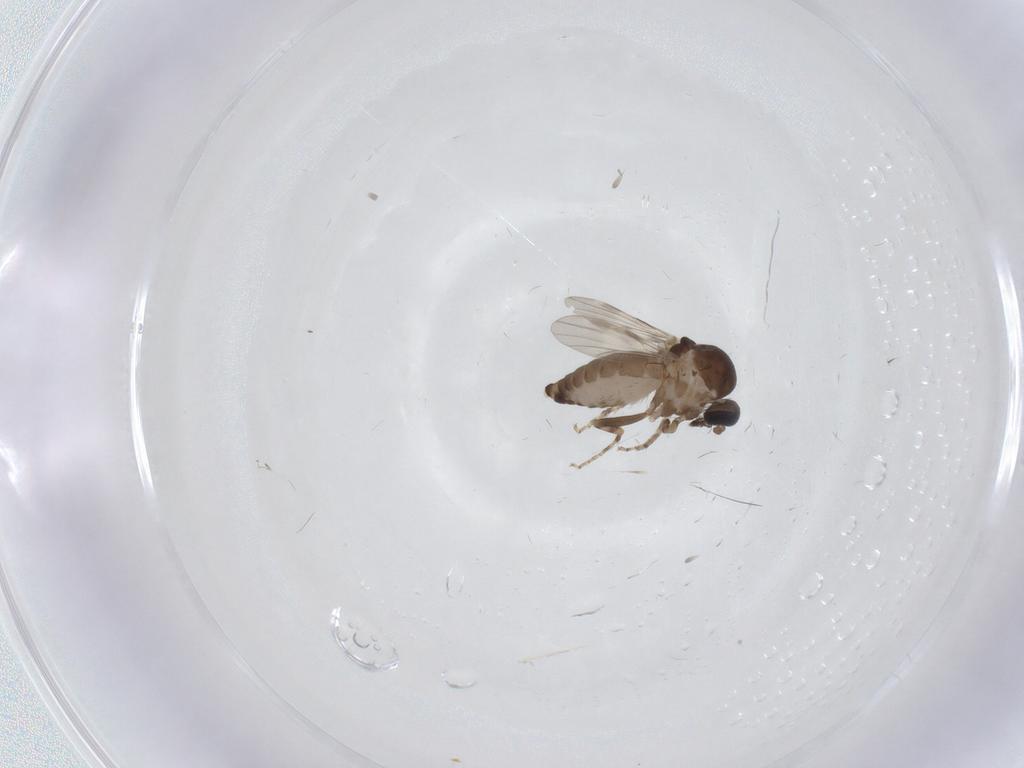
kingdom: Animalia
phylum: Arthropoda
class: Insecta
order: Diptera
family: Ceratopogonidae
